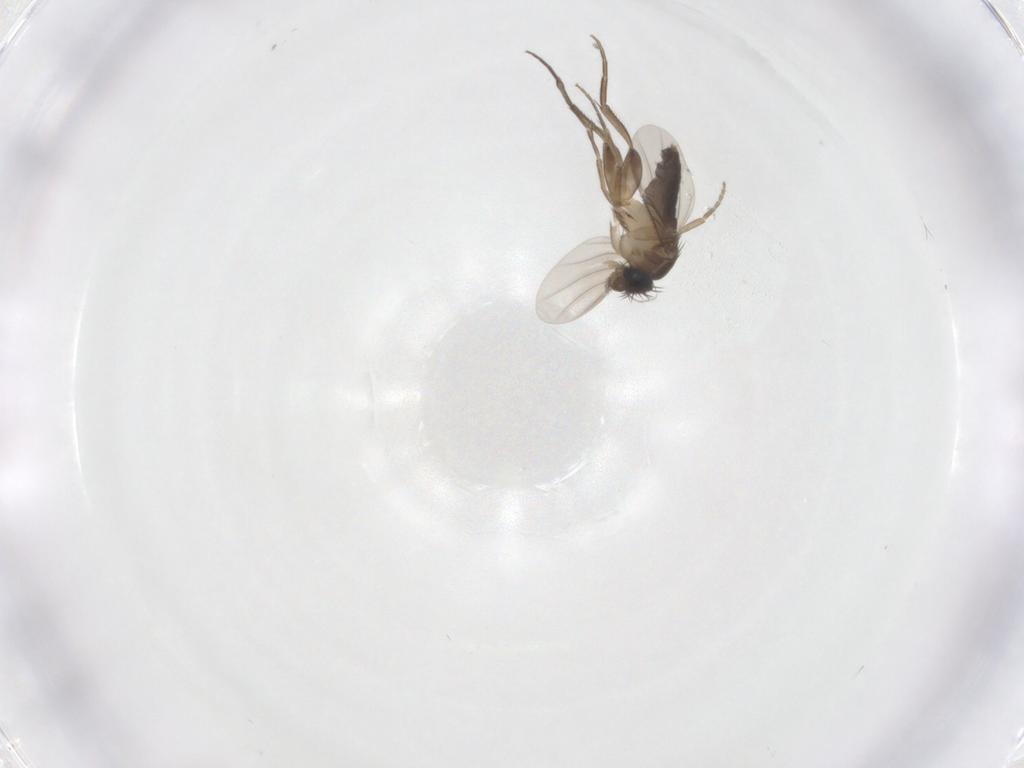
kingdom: Animalia
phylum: Arthropoda
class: Insecta
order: Diptera
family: Phoridae
